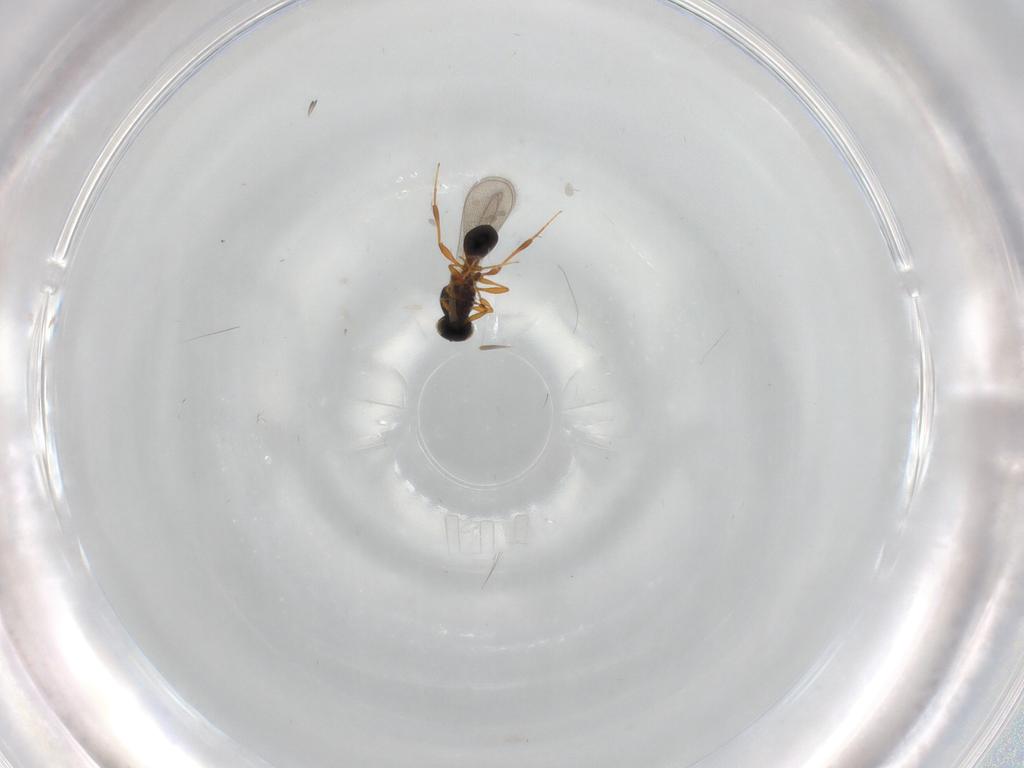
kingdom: Animalia
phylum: Arthropoda
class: Insecta
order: Hymenoptera
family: Platygastridae
